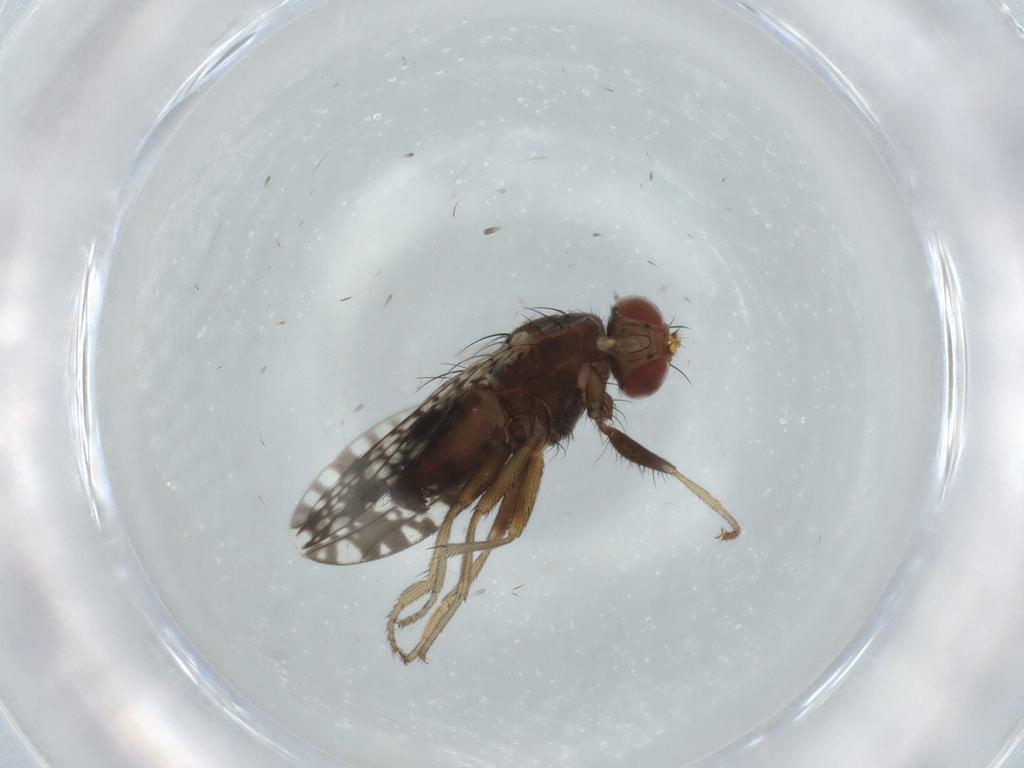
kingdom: Animalia
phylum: Arthropoda
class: Insecta
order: Diptera
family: Tephritidae
